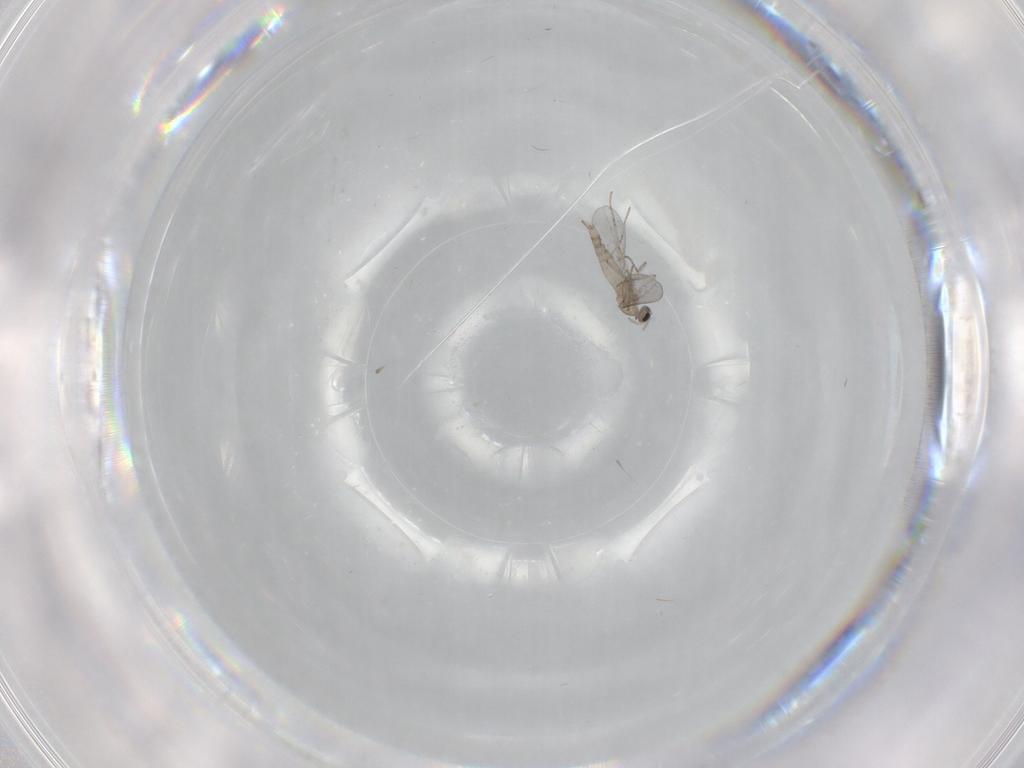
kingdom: Animalia
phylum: Arthropoda
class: Insecta
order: Diptera
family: Cecidomyiidae
